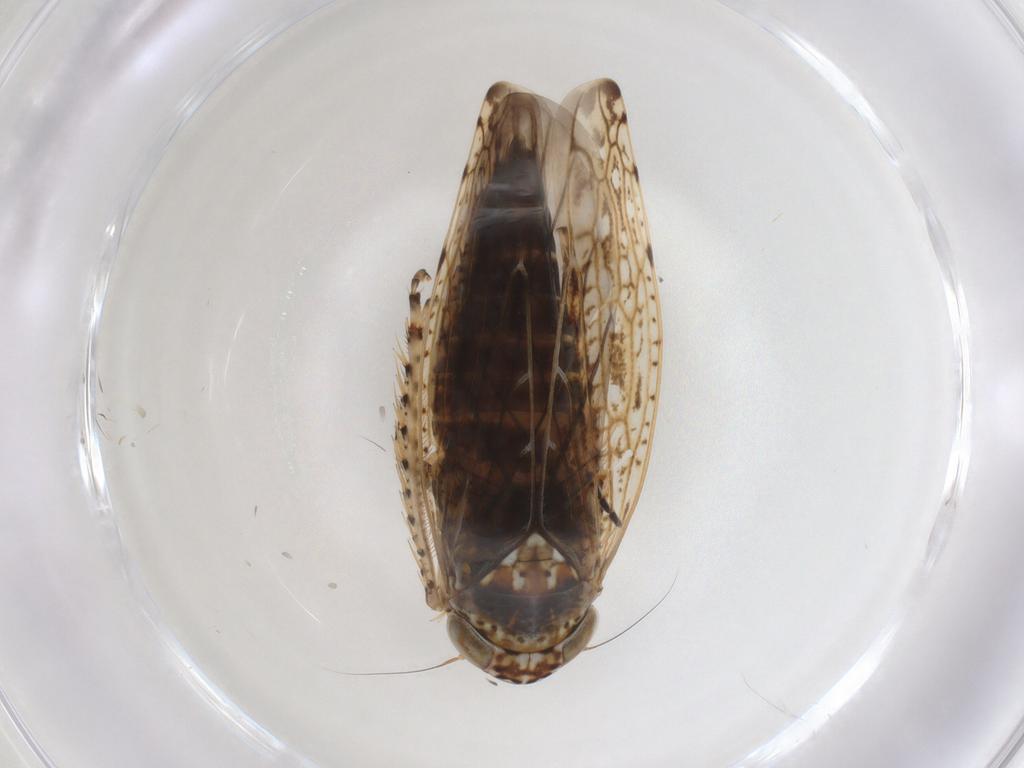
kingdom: Animalia
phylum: Arthropoda
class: Insecta
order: Hemiptera
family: Cicadellidae
